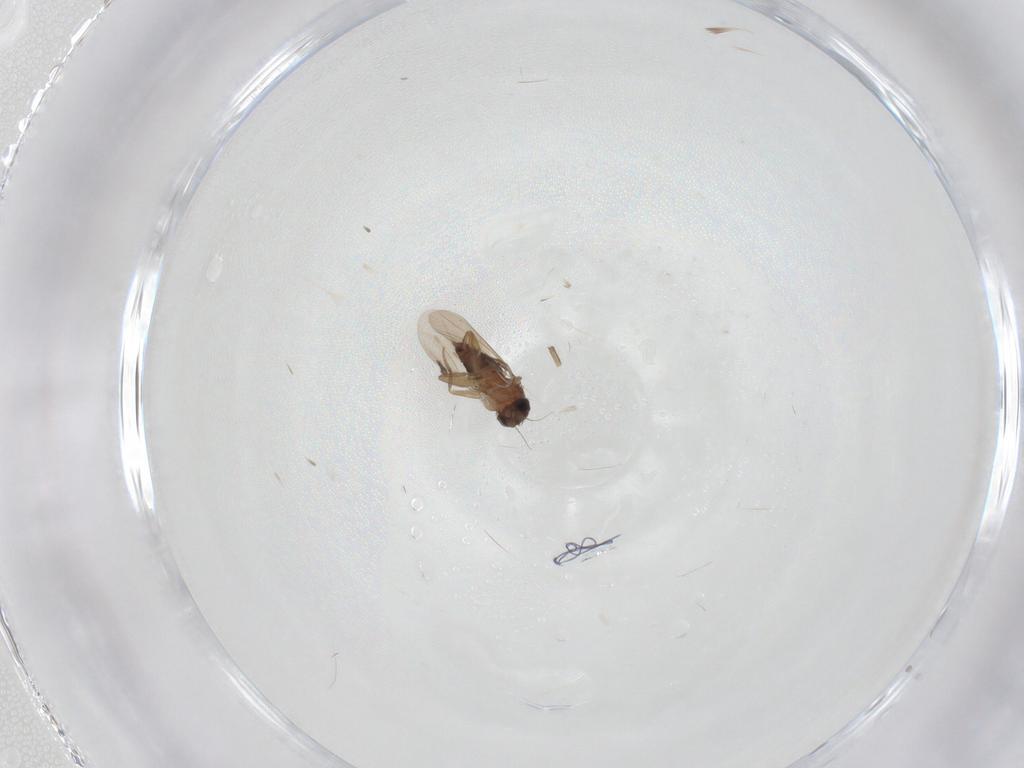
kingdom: Animalia
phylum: Arthropoda
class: Insecta
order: Diptera
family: Phoridae
